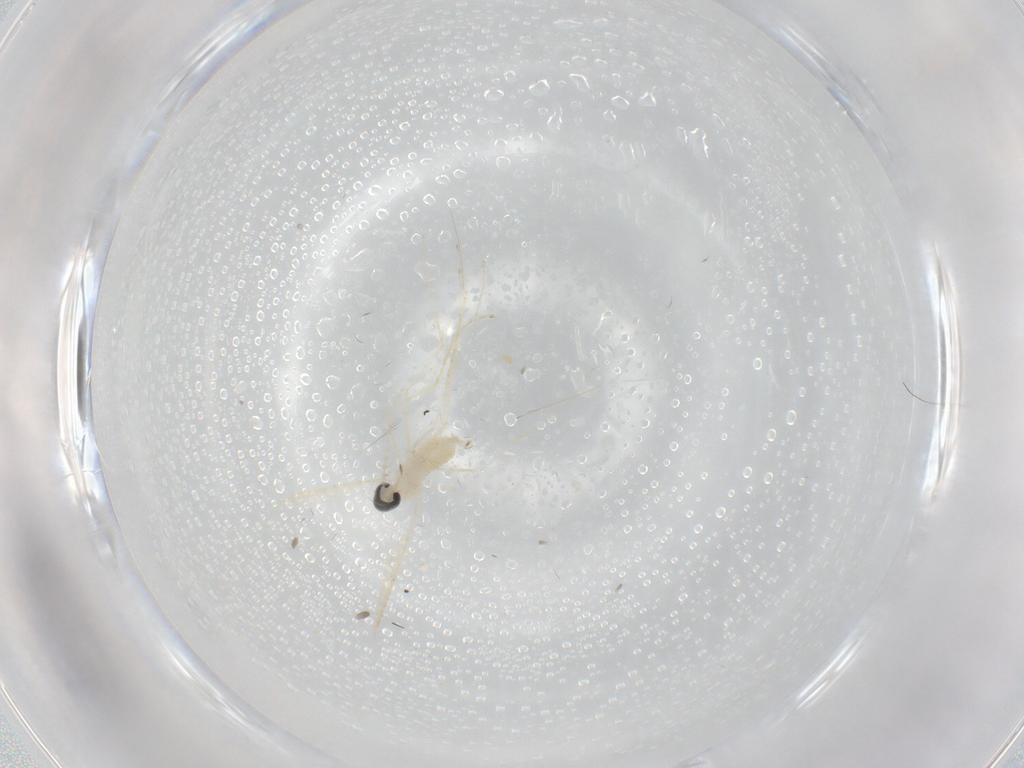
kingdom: Animalia
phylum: Arthropoda
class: Insecta
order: Diptera
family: Cecidomyiidae
